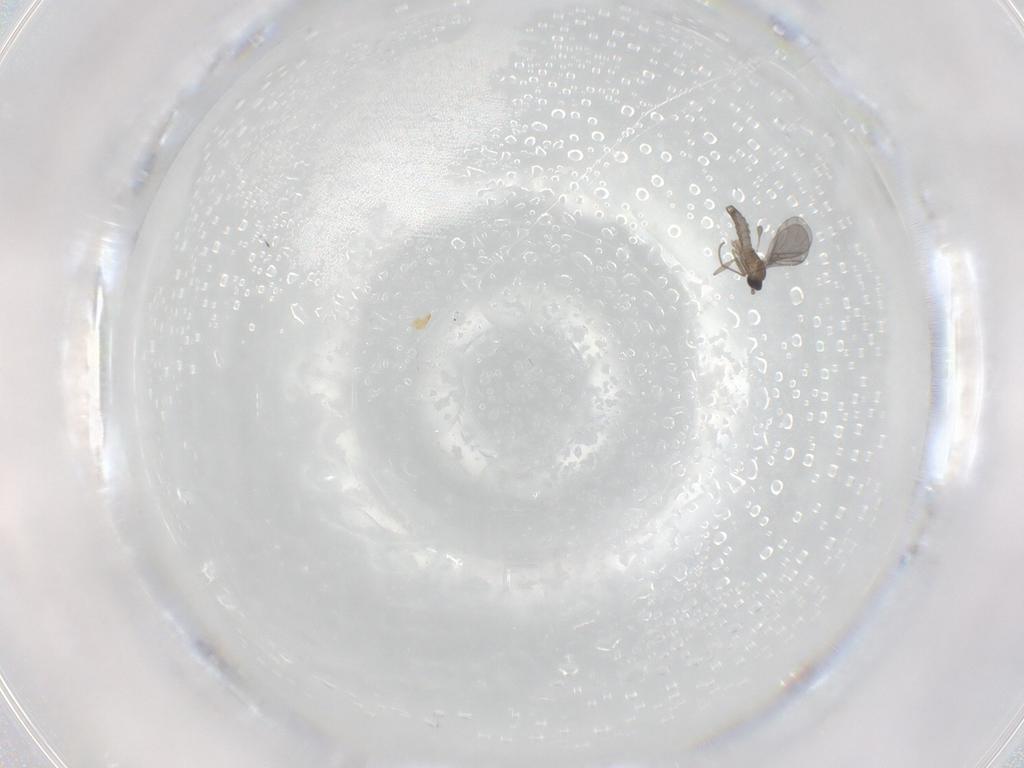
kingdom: Animalia
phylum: Arthropoda
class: Insecta
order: Diptera
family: Sciaridae
